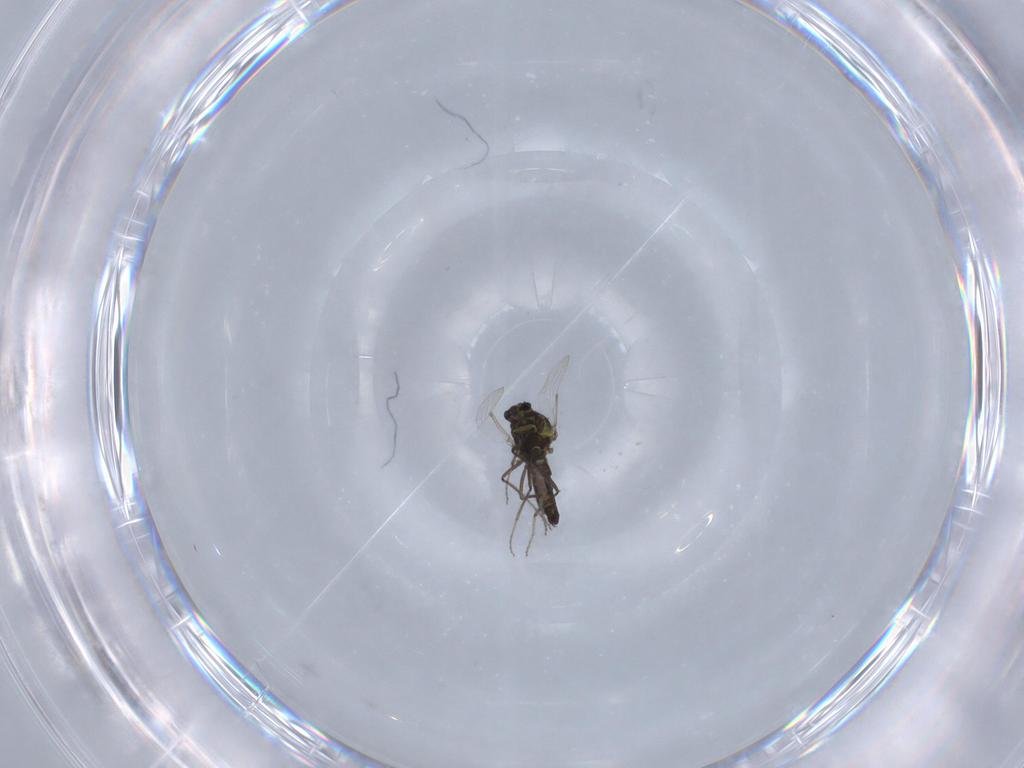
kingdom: Animalia
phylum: Arthropoda
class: Insecta
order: Diptera
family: Ceratopogonidae
